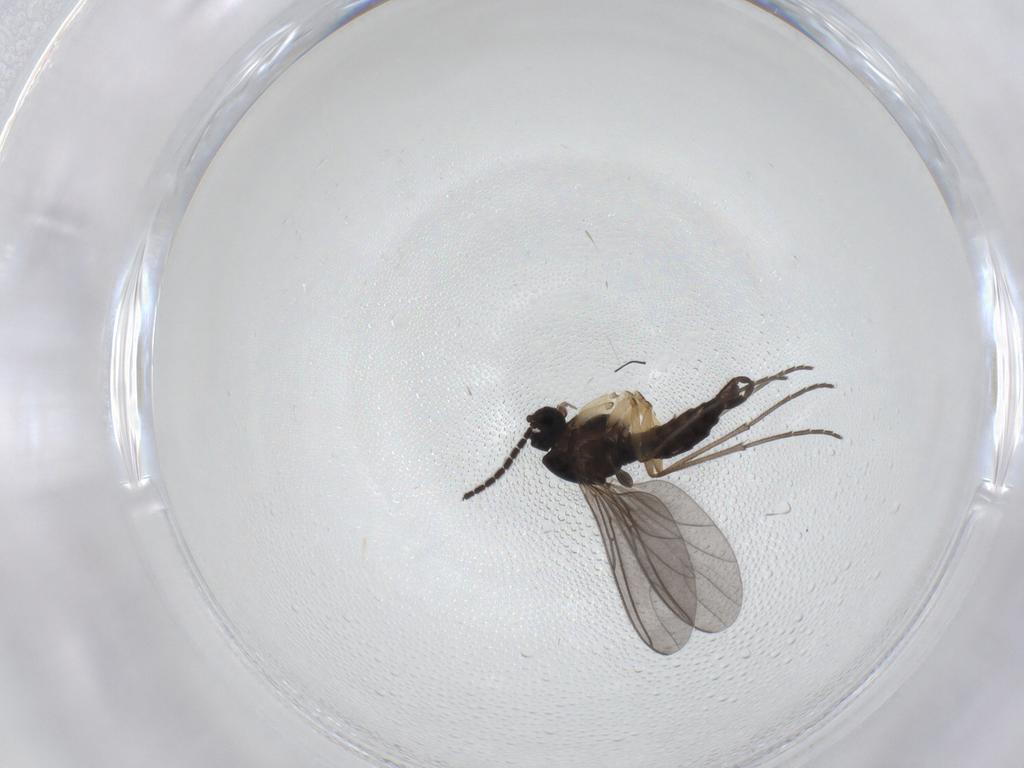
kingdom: Animalia
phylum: Arthropoda
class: Insecta
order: Diptera
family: Sciaridae
